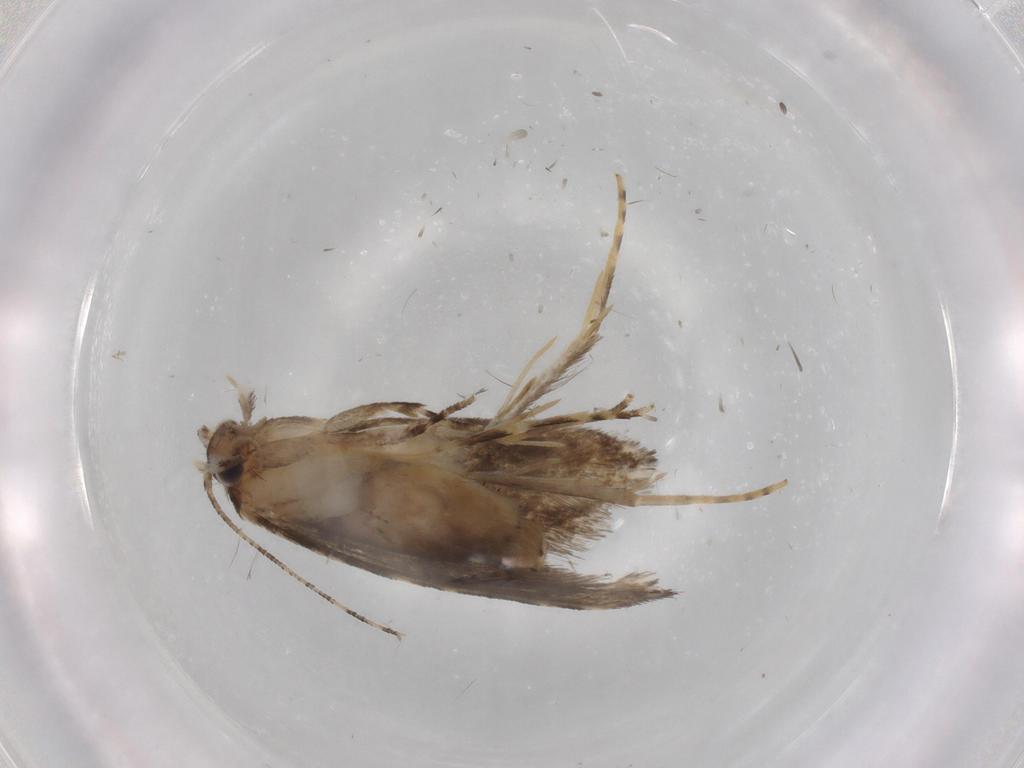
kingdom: Animalia
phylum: Arthropoda
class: Insecta
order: Lepidoptera
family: Tineidae
